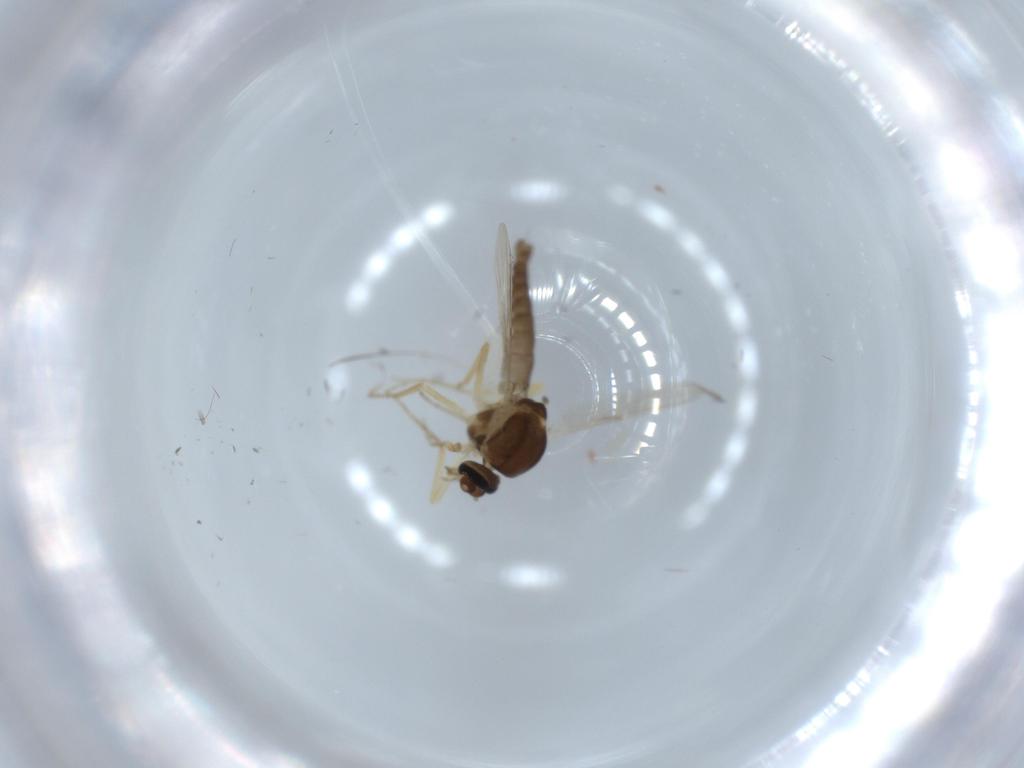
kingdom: Animalia
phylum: Arthropoda
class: Insecta
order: Diptera
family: Ceratopogonidae
